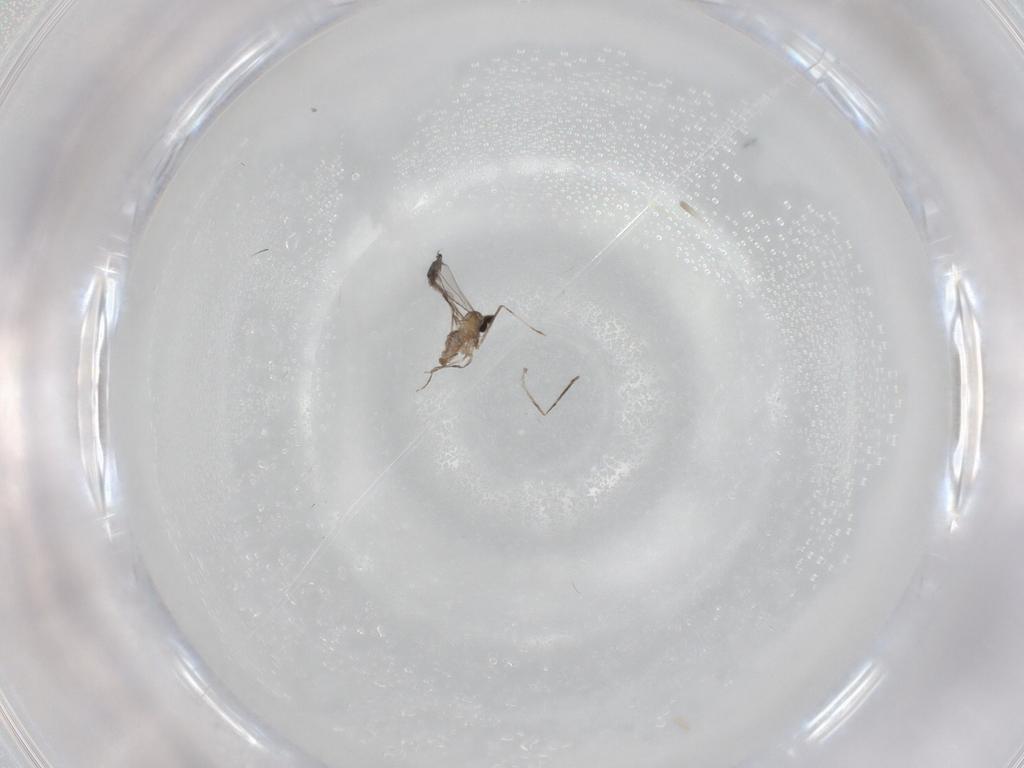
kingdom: Animalia
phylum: Arthropoda
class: Insecta
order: Diptera
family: Cecidomyiidae
